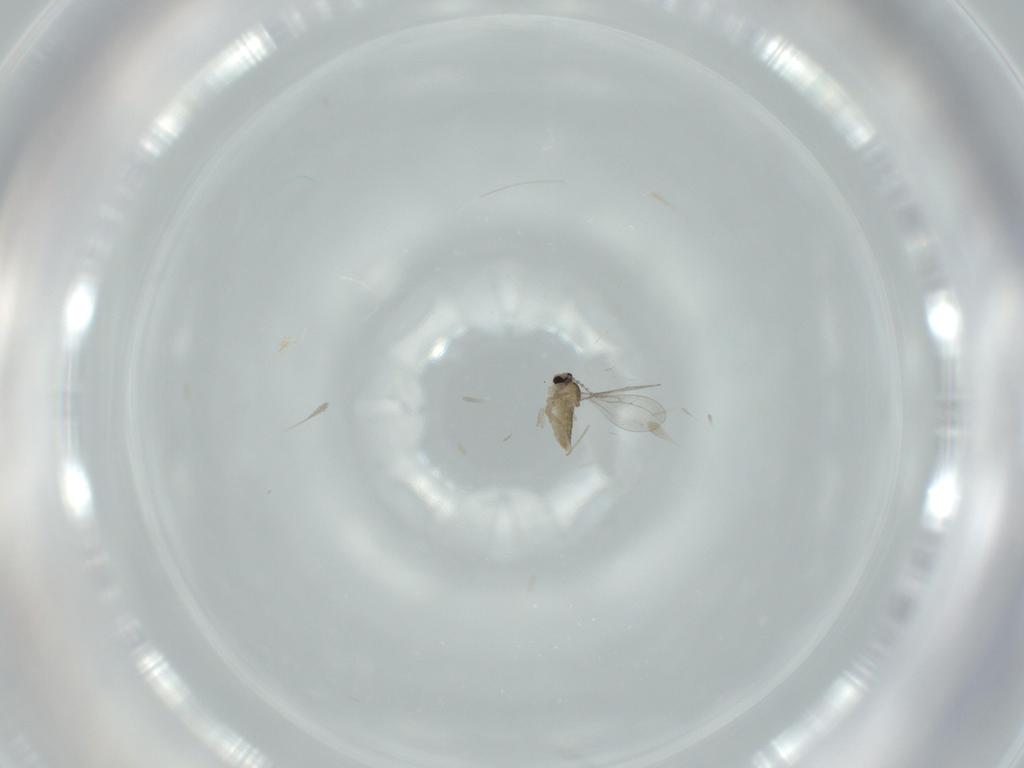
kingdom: Animalia
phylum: Arthropoda
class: Insecta
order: Diptera
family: Cecidomyiidae
